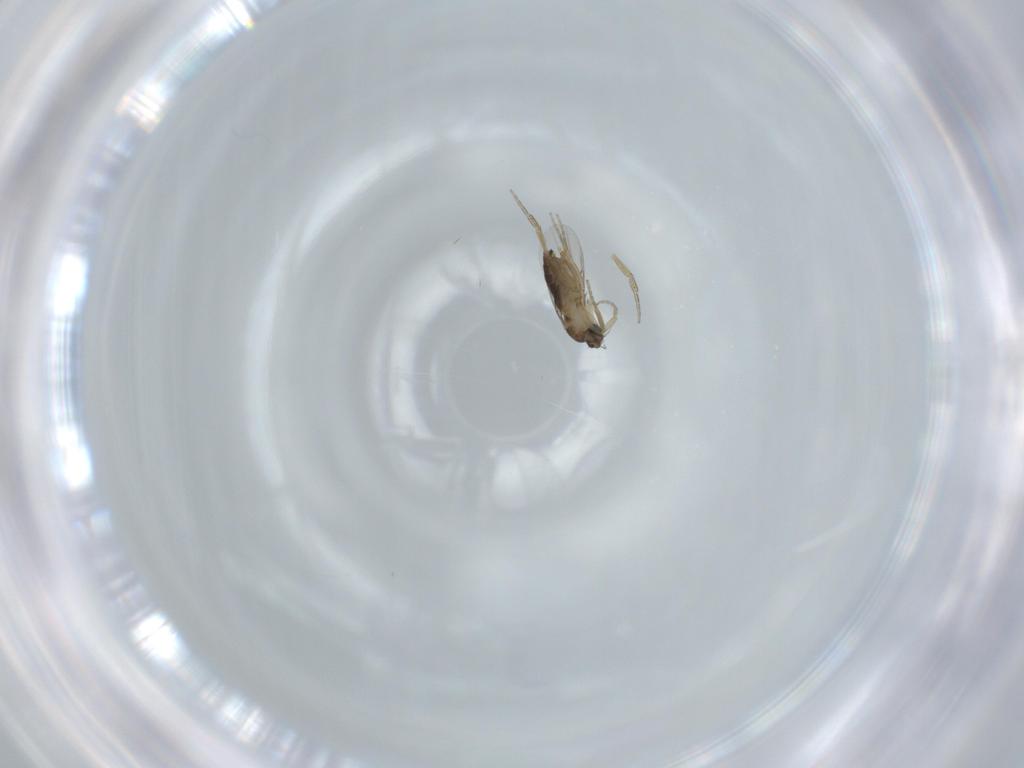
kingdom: Animalia
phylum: Arthropoda
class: Insecta
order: Diptera
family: Phoridae
